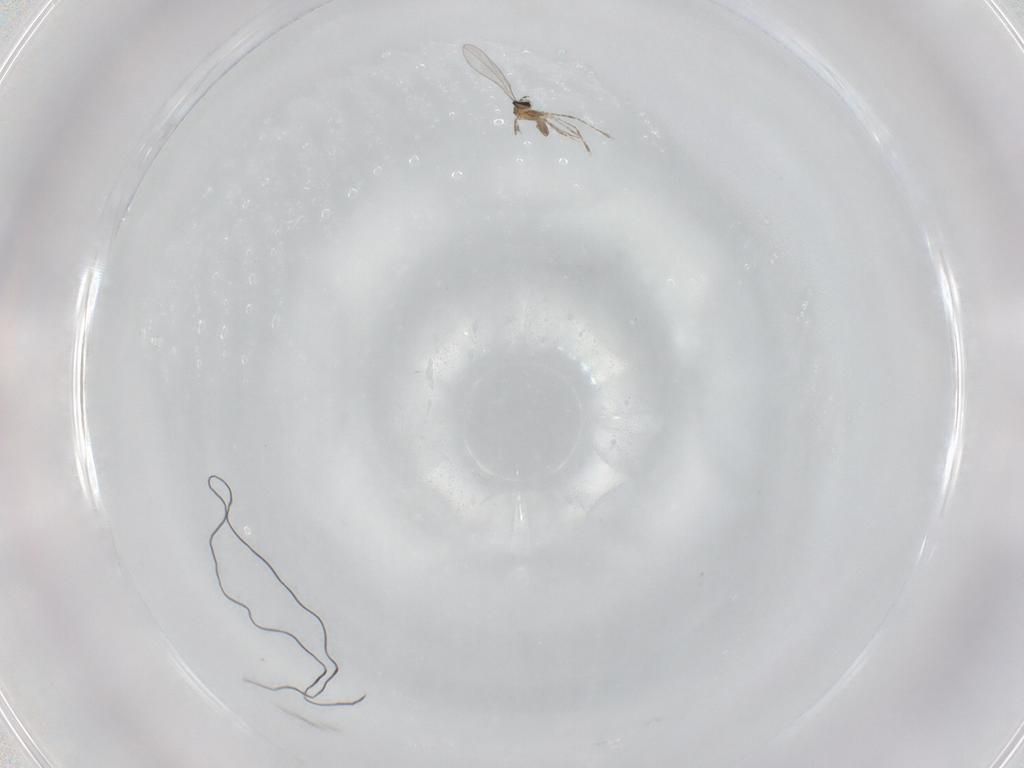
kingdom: Animalia
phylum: Arthropoda
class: Insecta
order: Diptera
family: Cecidomyiidae
